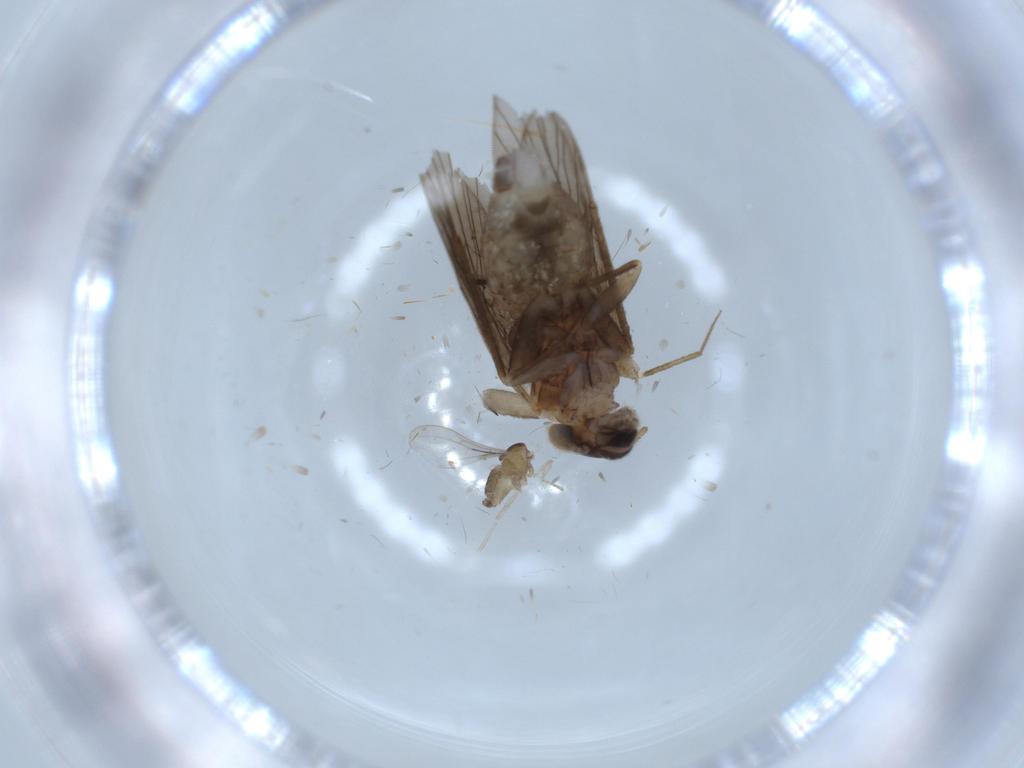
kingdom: Animalia
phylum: Arthropoda
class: Insecta
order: Diptera
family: Cecidomyiidae
